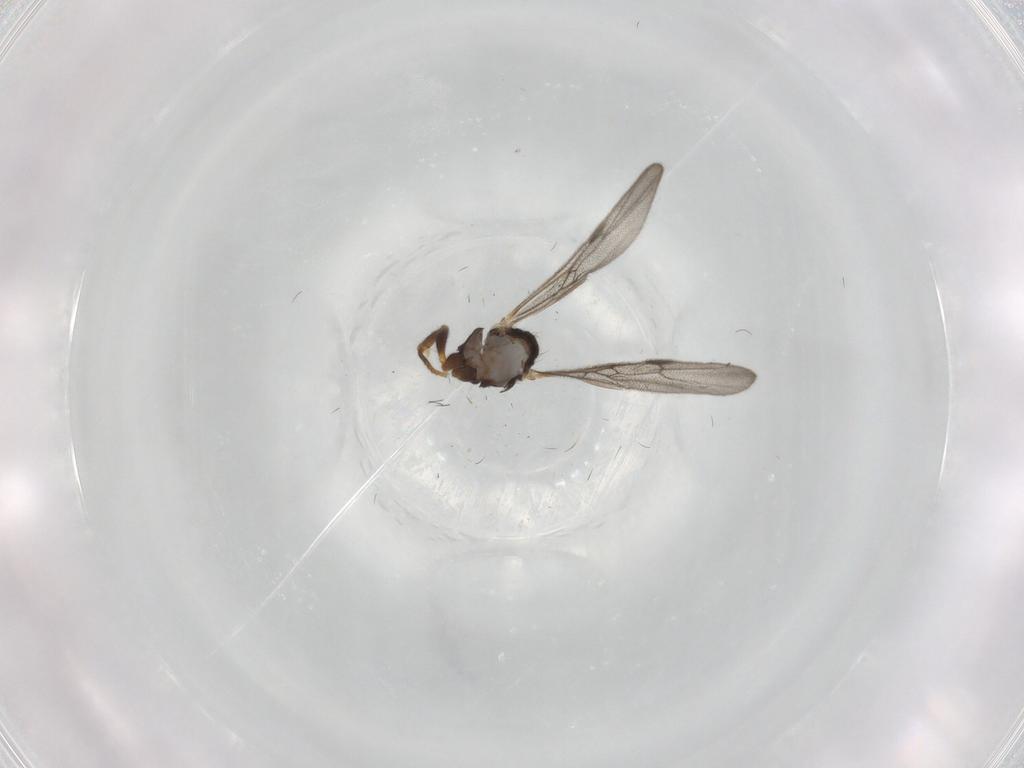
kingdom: Animalia
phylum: Arthropoda
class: Insecta
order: Hymenoptera
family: Formicidae
